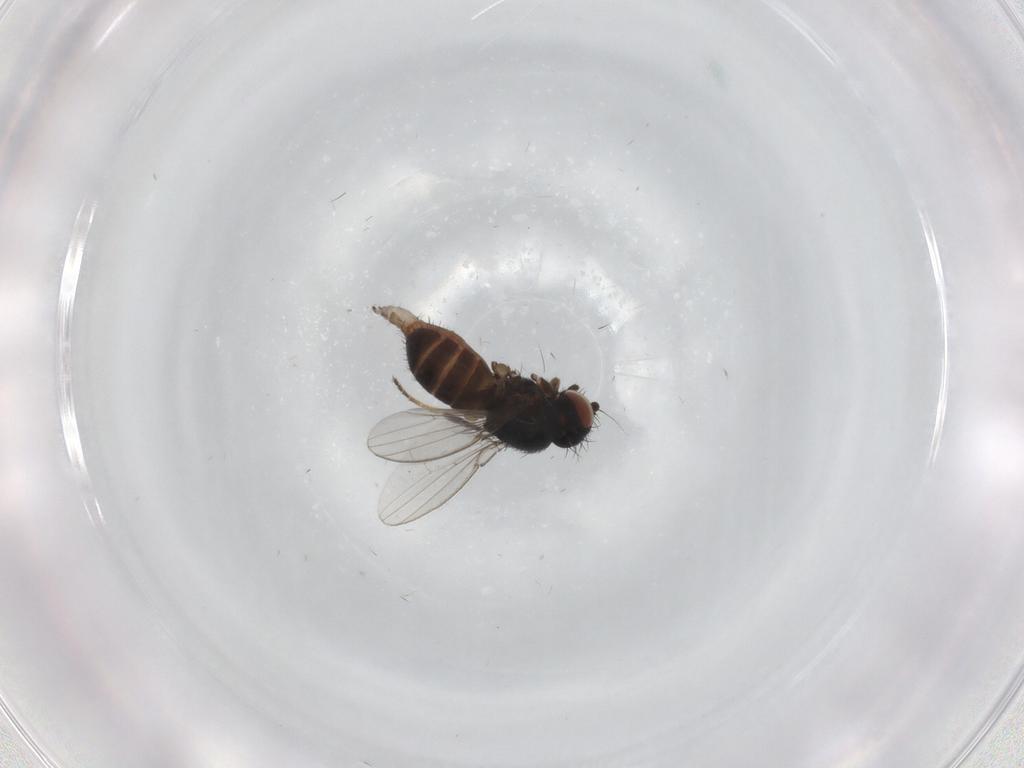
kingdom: Animalia
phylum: Arthropoda
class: Insecta
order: Diptera
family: Milichiidae
